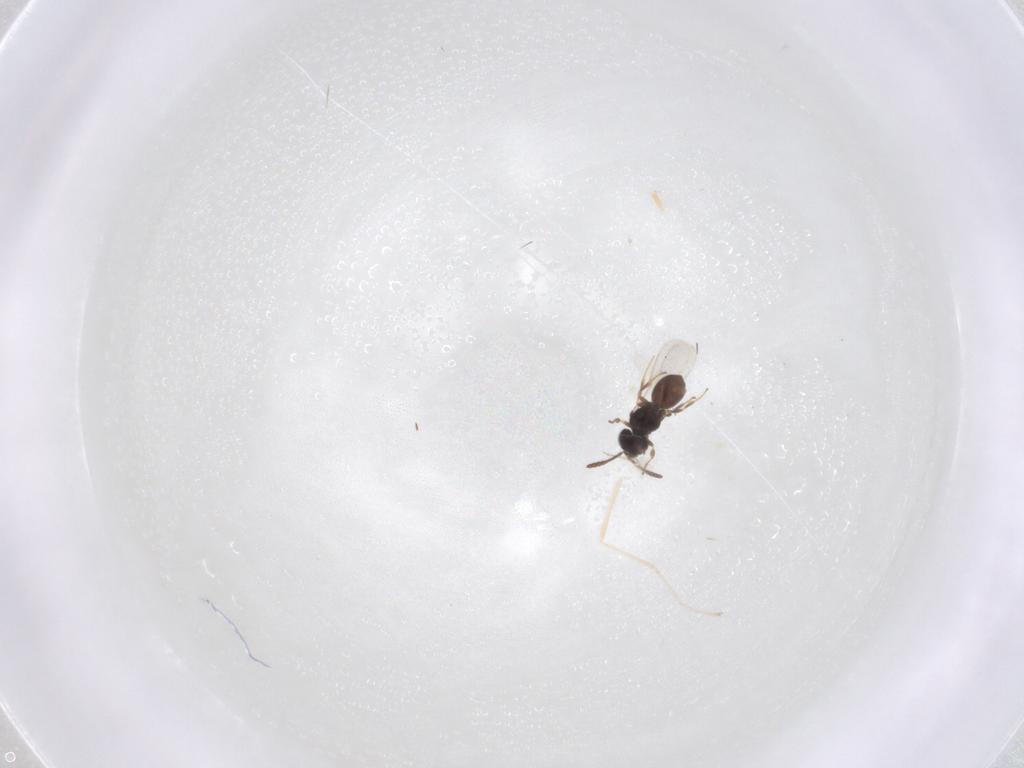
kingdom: Animalia
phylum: Arthropoda
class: Insecta
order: Hymenoptera
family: Scelionidae
